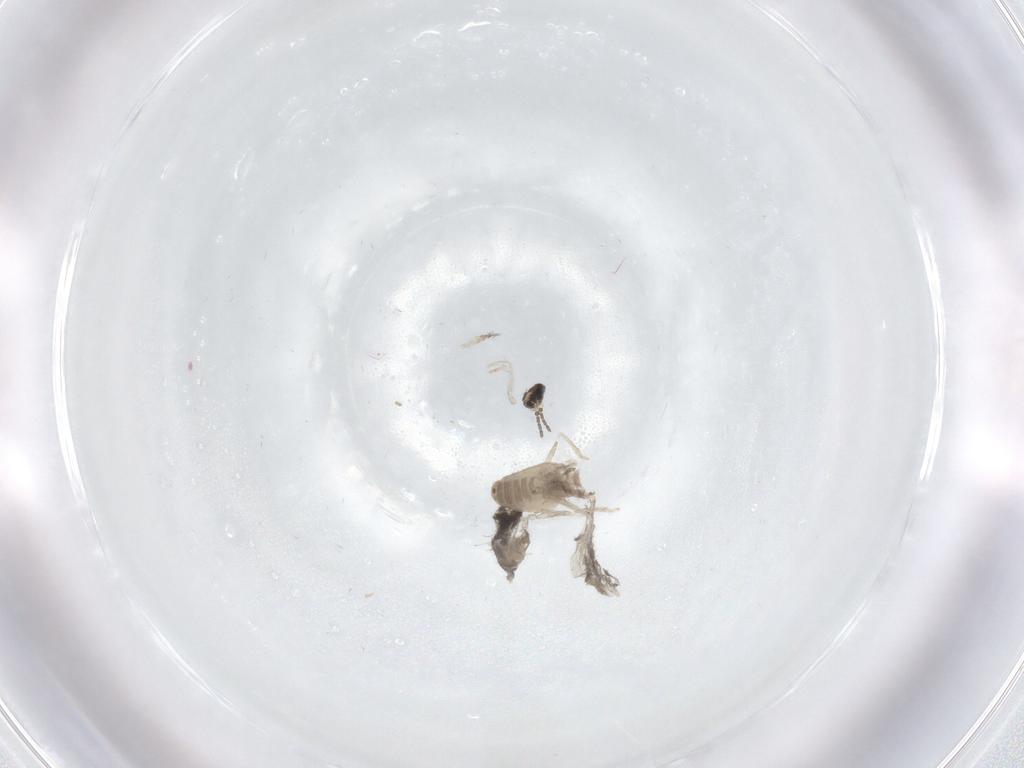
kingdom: Animalia
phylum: Arthropoda
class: Insecta
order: Diptera
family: Cecidomyiidae
